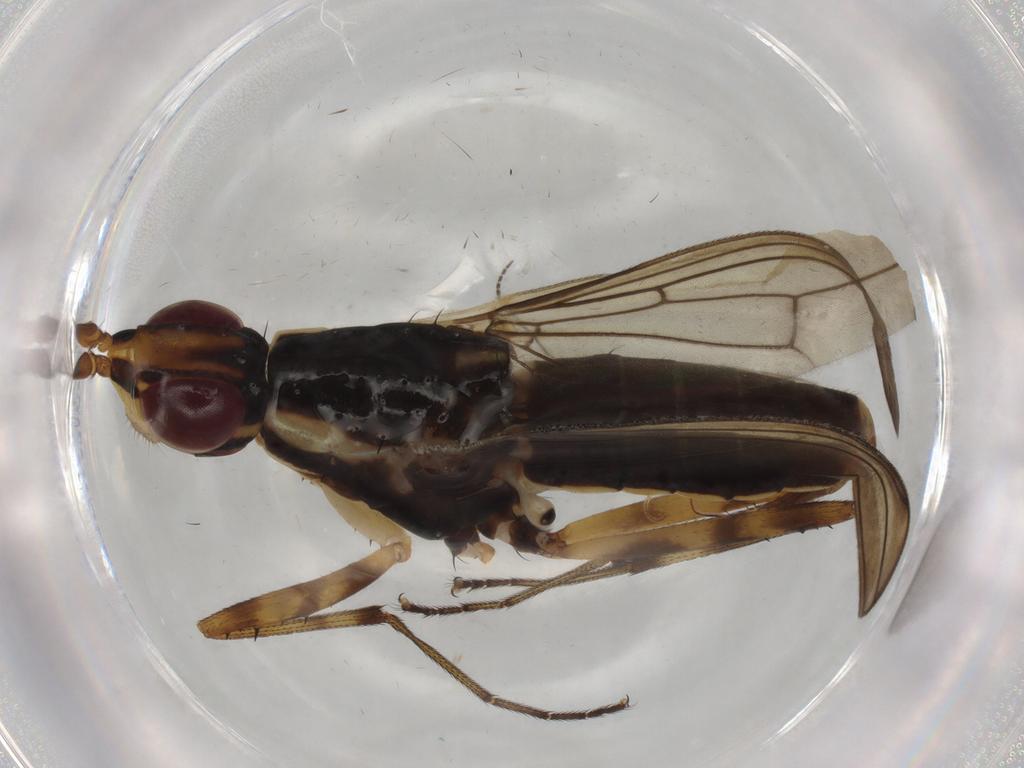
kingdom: Animalia
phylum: Arthropoda
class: Insecta
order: Diptera
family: Neriidae
